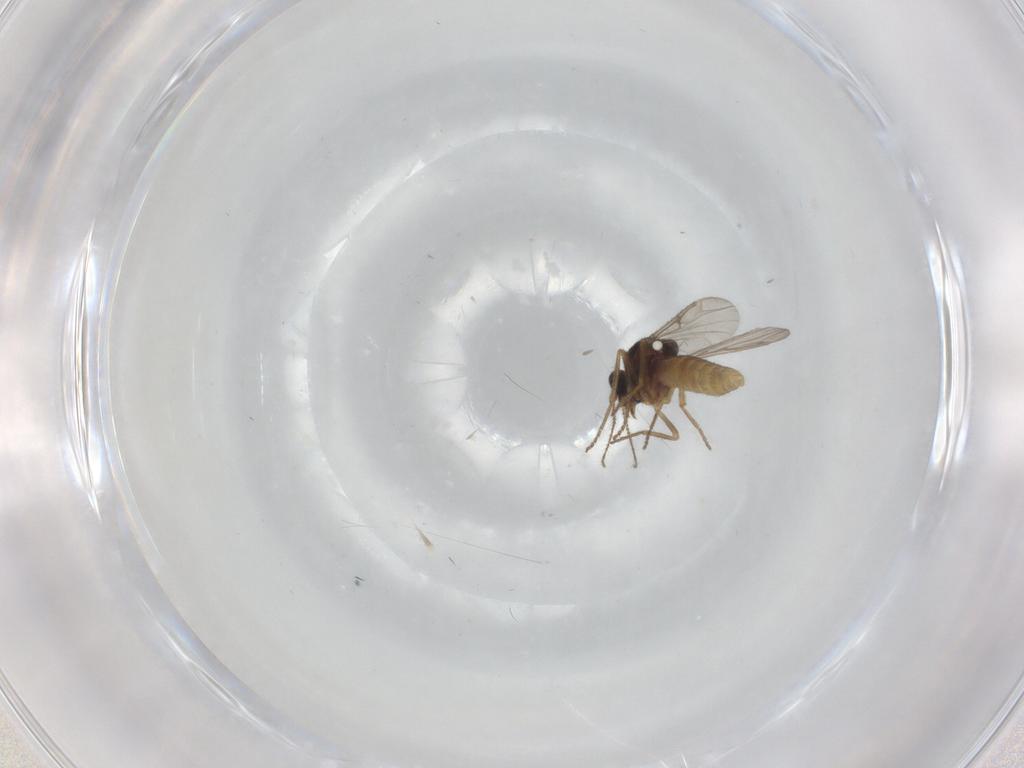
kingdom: Animalia
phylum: Arthropoda
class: Insecta
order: Diptera
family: Ceratopogonidae
